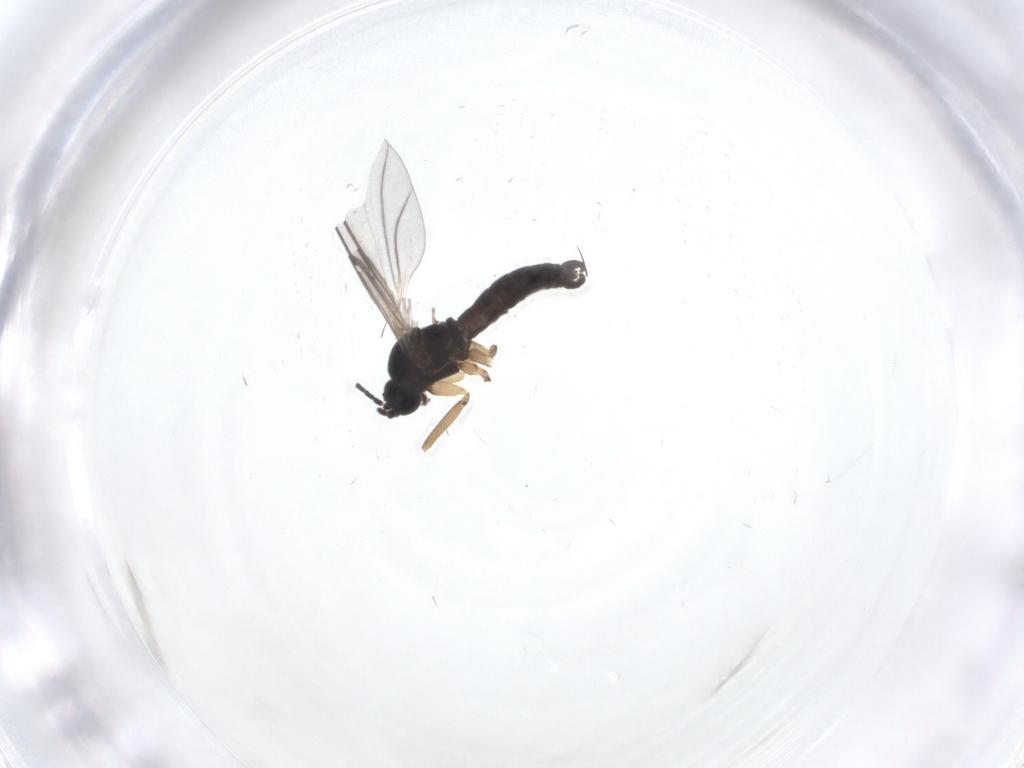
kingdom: Animalia
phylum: Arthropoda
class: Insecta
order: Diptera
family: Sciaridae
